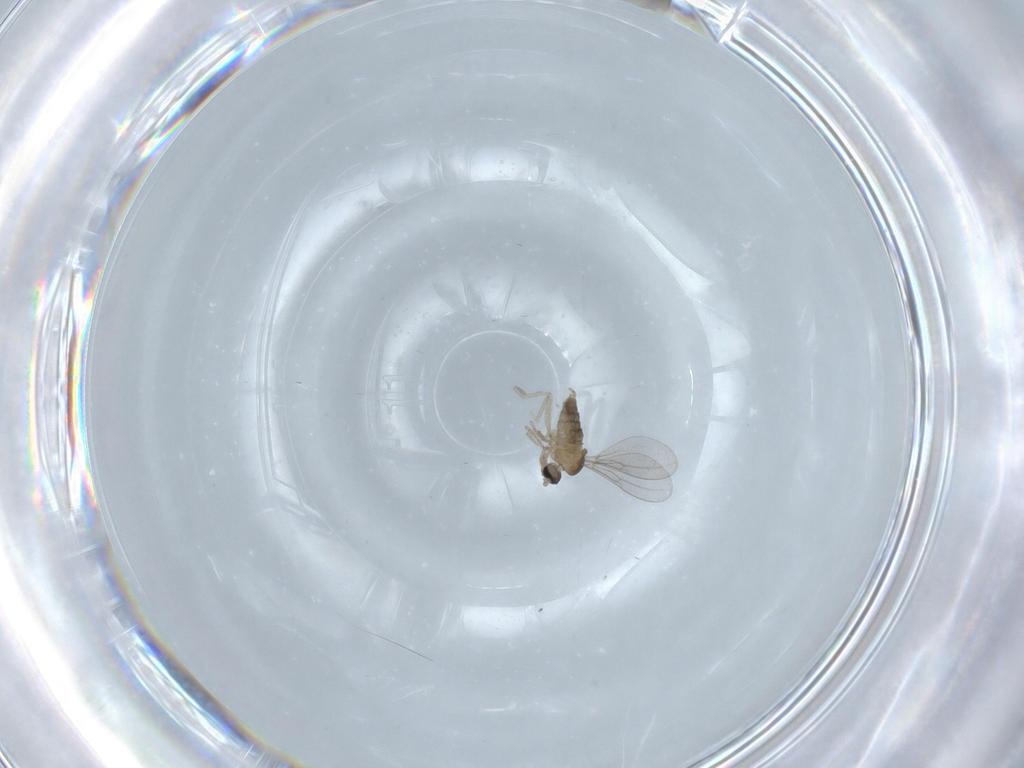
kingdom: Animalia
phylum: Arthropoda
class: Insecta
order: Diptera
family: Cecidomyiidae
